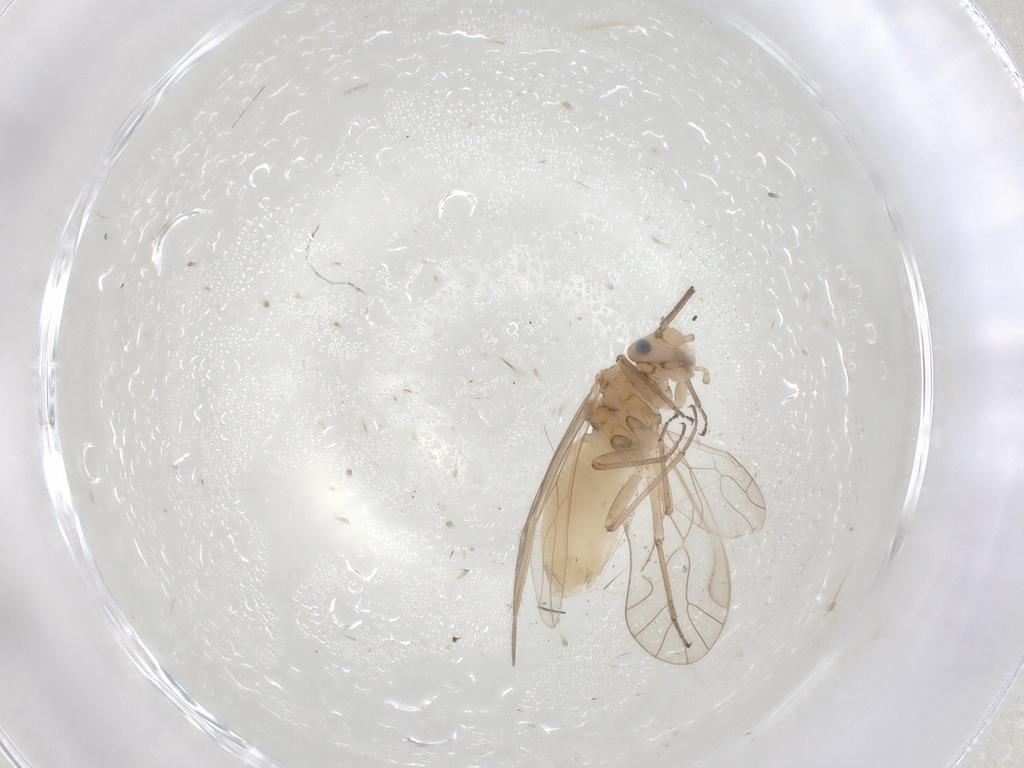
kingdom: Animalia
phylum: Arthropoda
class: Insecta
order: Psocodea
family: Elipsocidae
